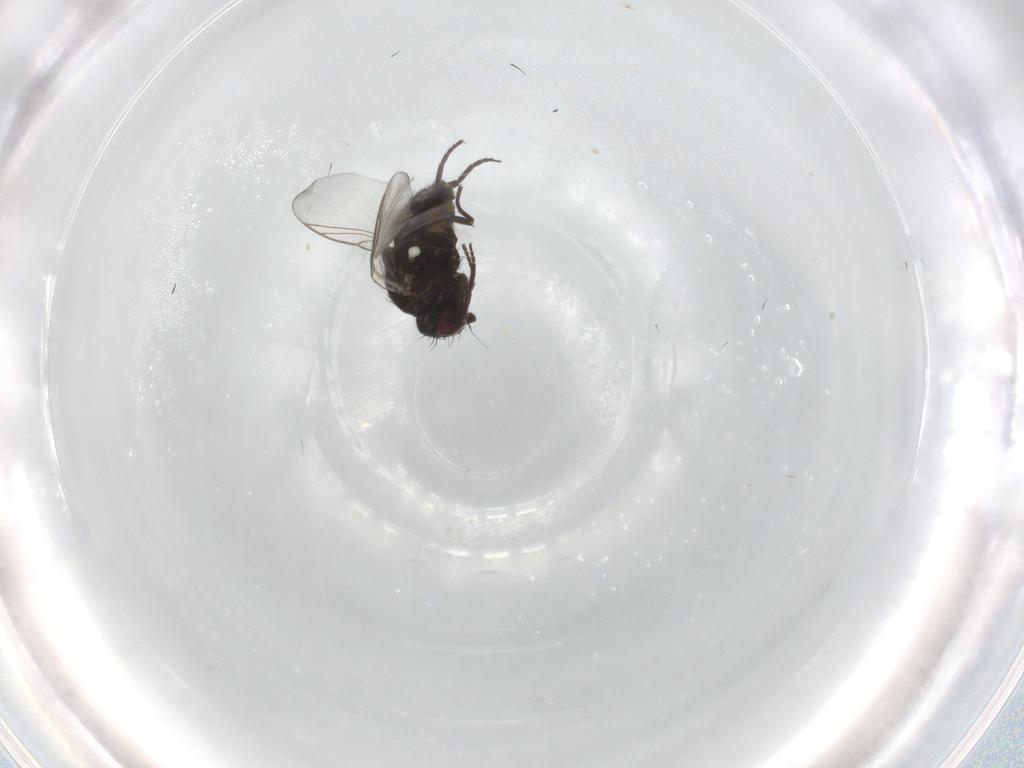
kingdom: Animalia
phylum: Arthropoda
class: Insecta
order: Diptera
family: Agromyzidae
